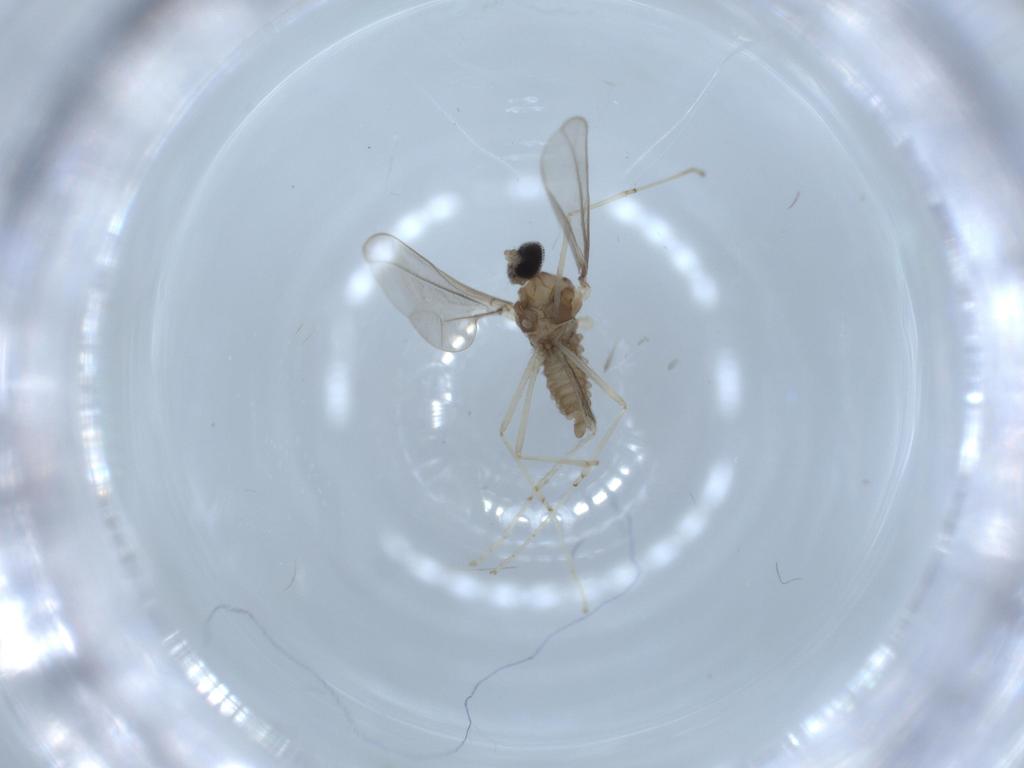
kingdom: Animalia
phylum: Arthropoda
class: Insecta
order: Diptera
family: Cecidomyiidae
